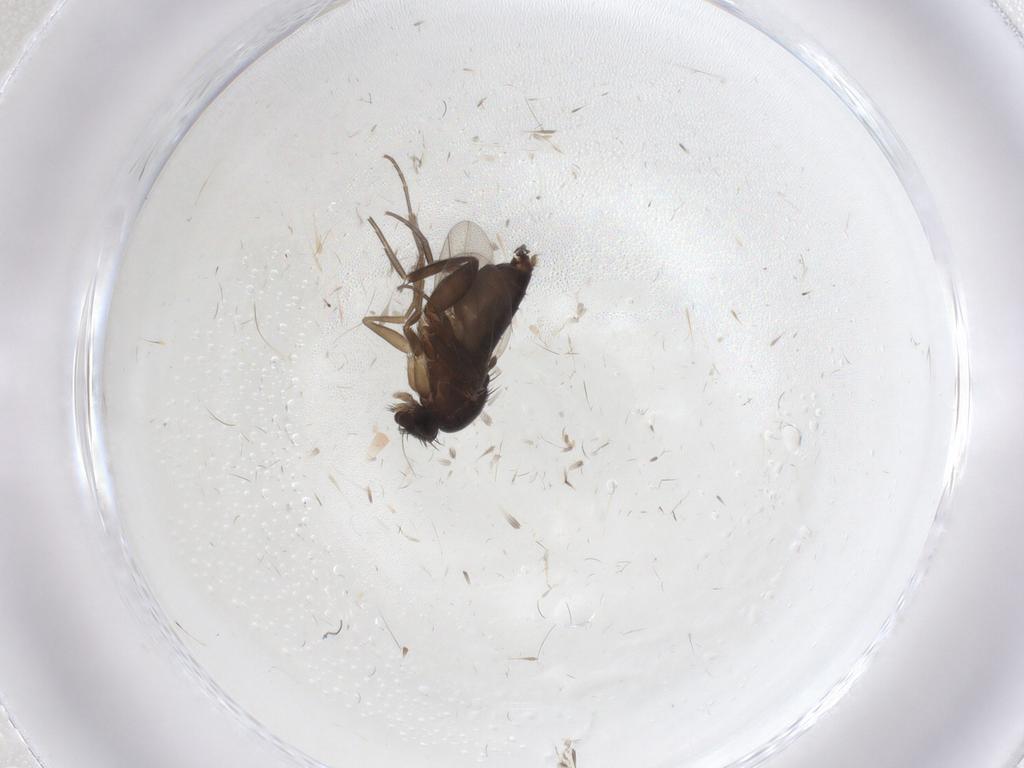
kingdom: Animalia
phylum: Arthropoda
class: Insecta
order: Diptera
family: Phoridae
